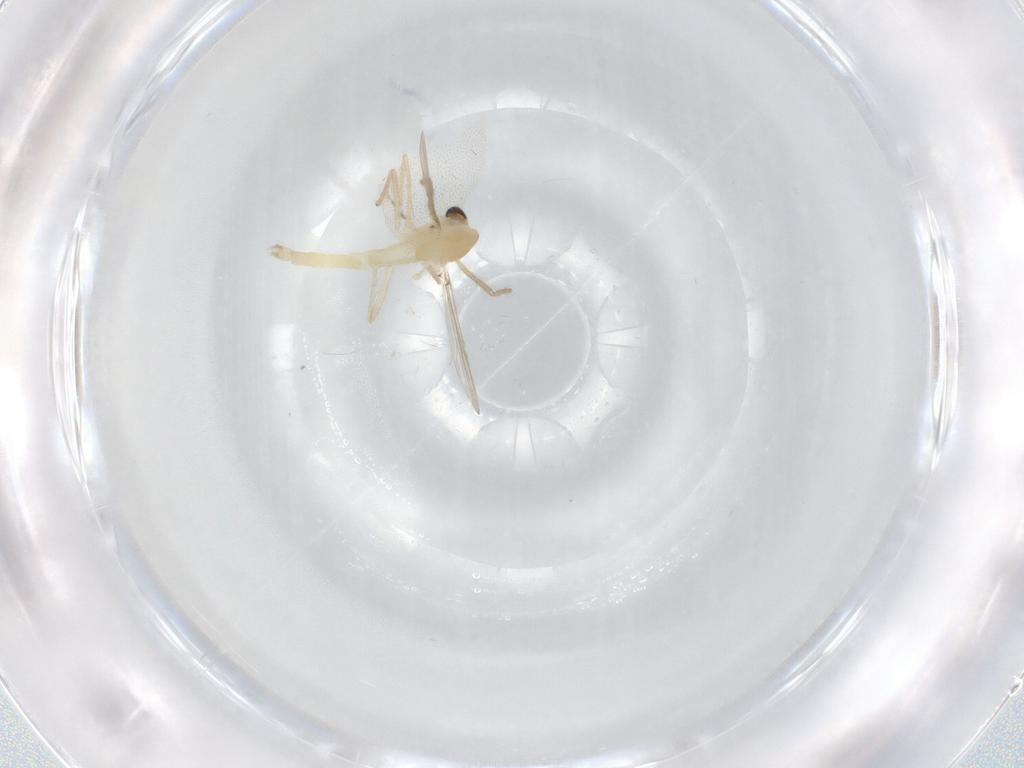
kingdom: Animalia
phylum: Arthropoda
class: Insecta
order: Diptera
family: Chironomidae
